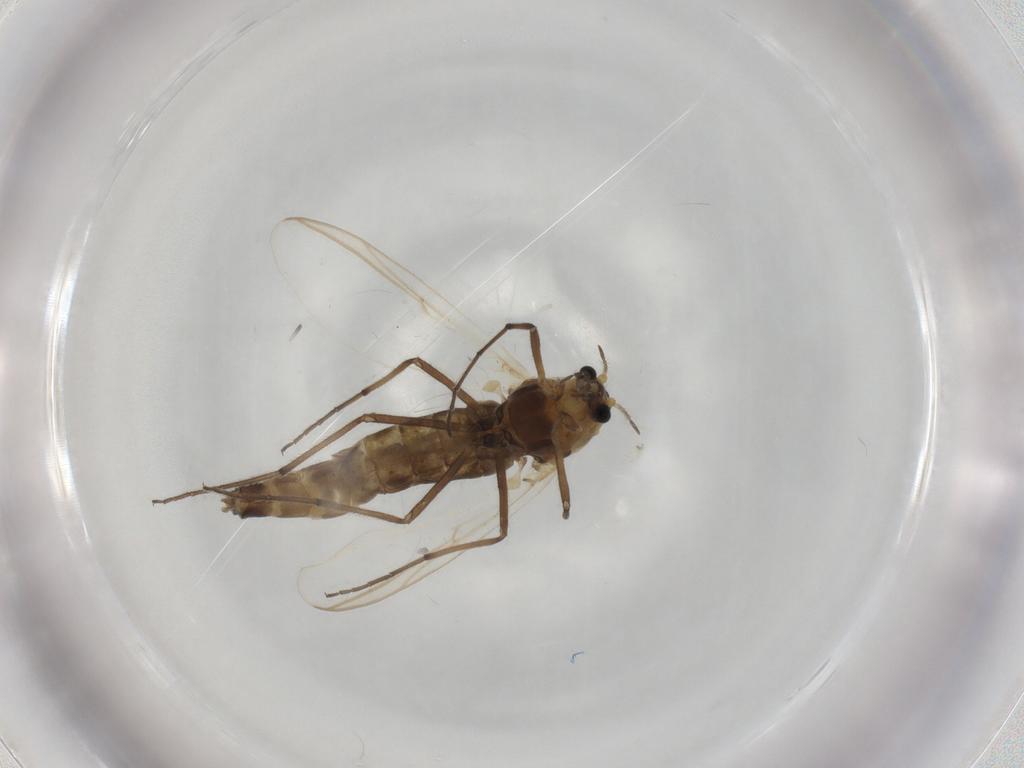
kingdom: Animalia
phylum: Arthropoda
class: Insecta
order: Diptera
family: Chironomidae
